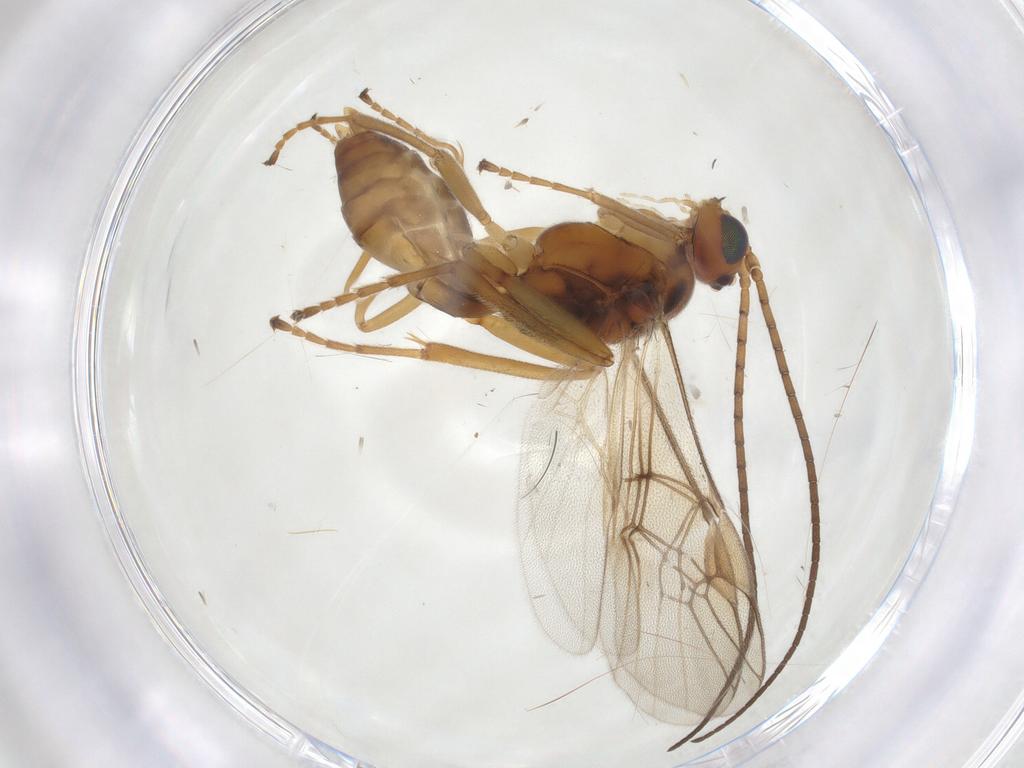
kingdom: Animalia
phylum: Arthropoda
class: Insecta
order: Hymenoptera
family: Braconidae
